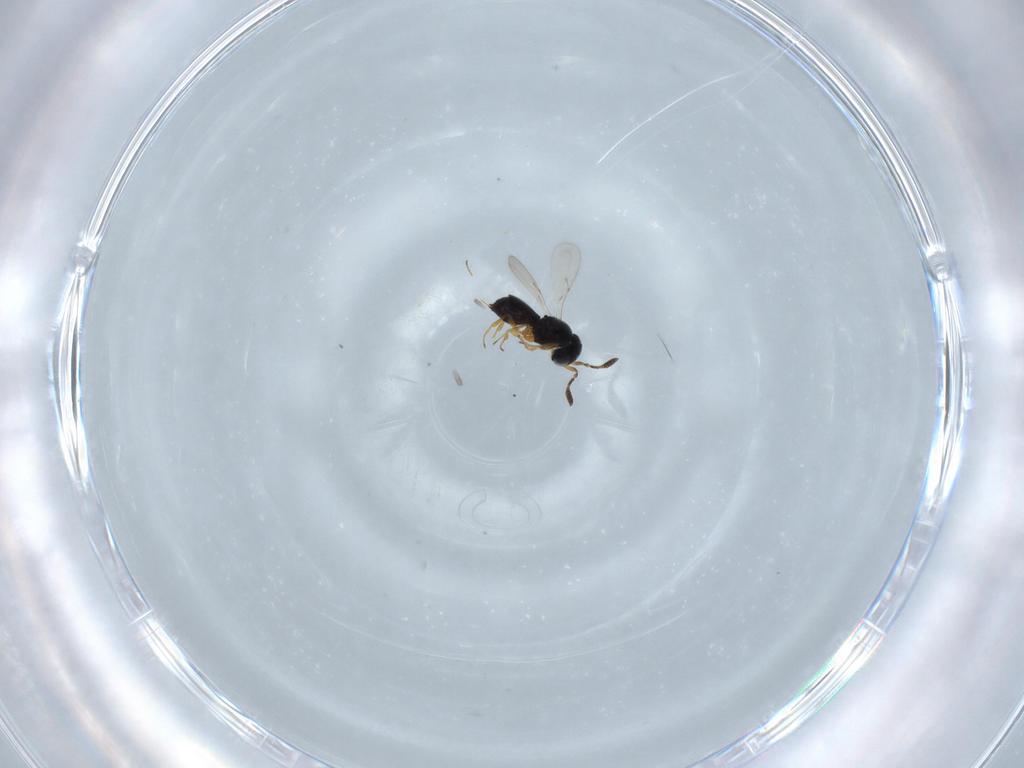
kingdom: Animalia
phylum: Arthropoda
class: Insecta
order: Hymenoptera
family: Scelionidae
